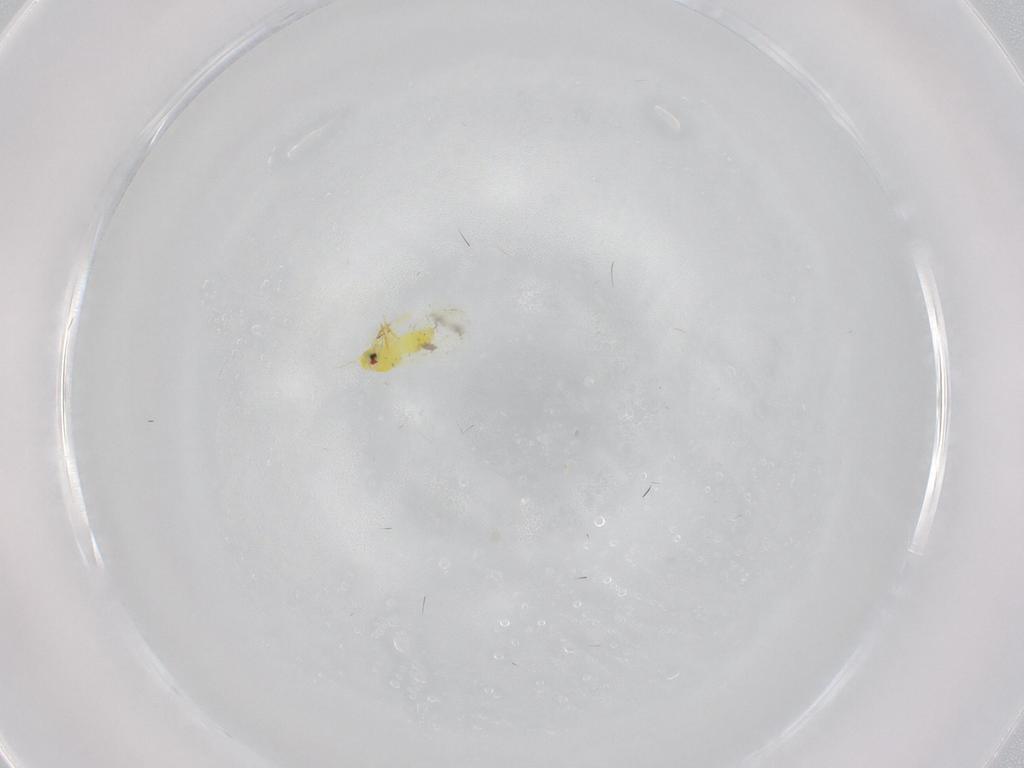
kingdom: Animalia
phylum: Arthropoda
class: Insecta
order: Hemiptera
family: Aleyrodidae
